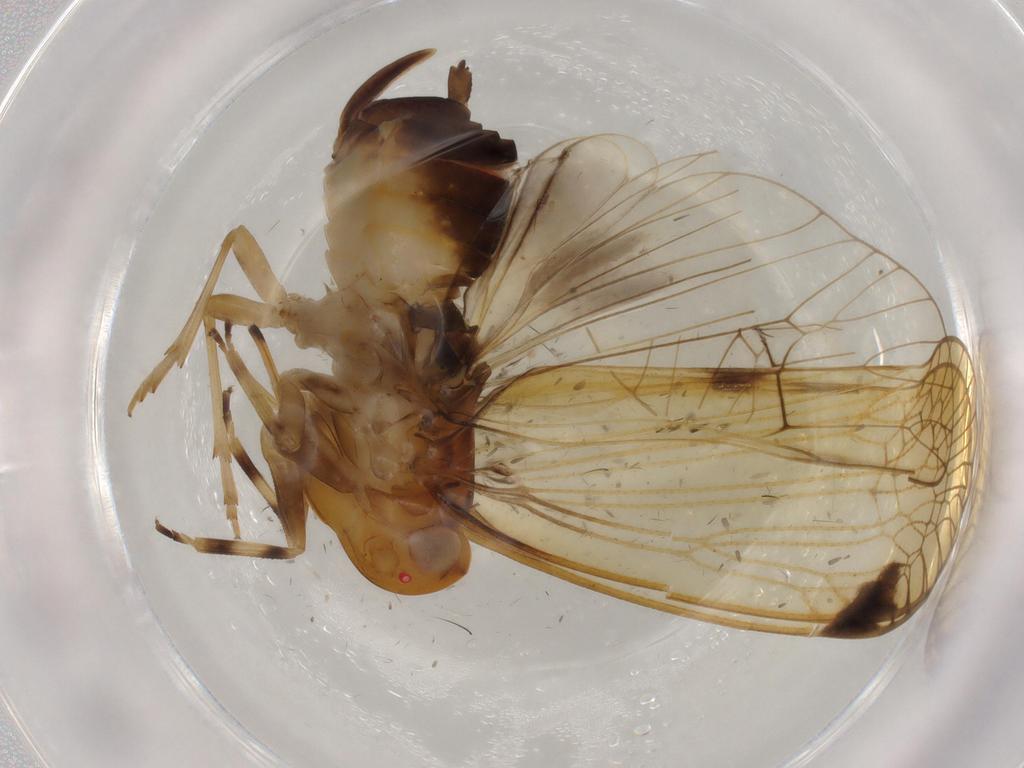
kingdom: Animalia
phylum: Arthropoda
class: Insecta
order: Hemiptera
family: Cixiidae
